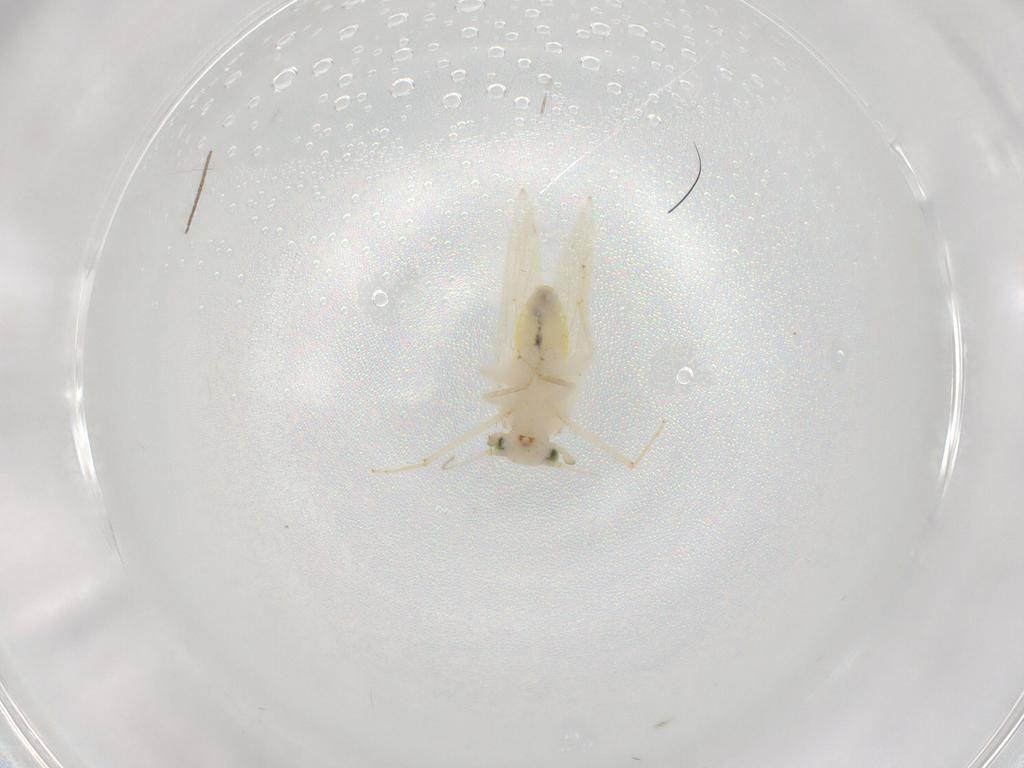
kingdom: Animalia
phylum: Arthropoda
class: Insecta
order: Psocodea
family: Lepidopsocidae
